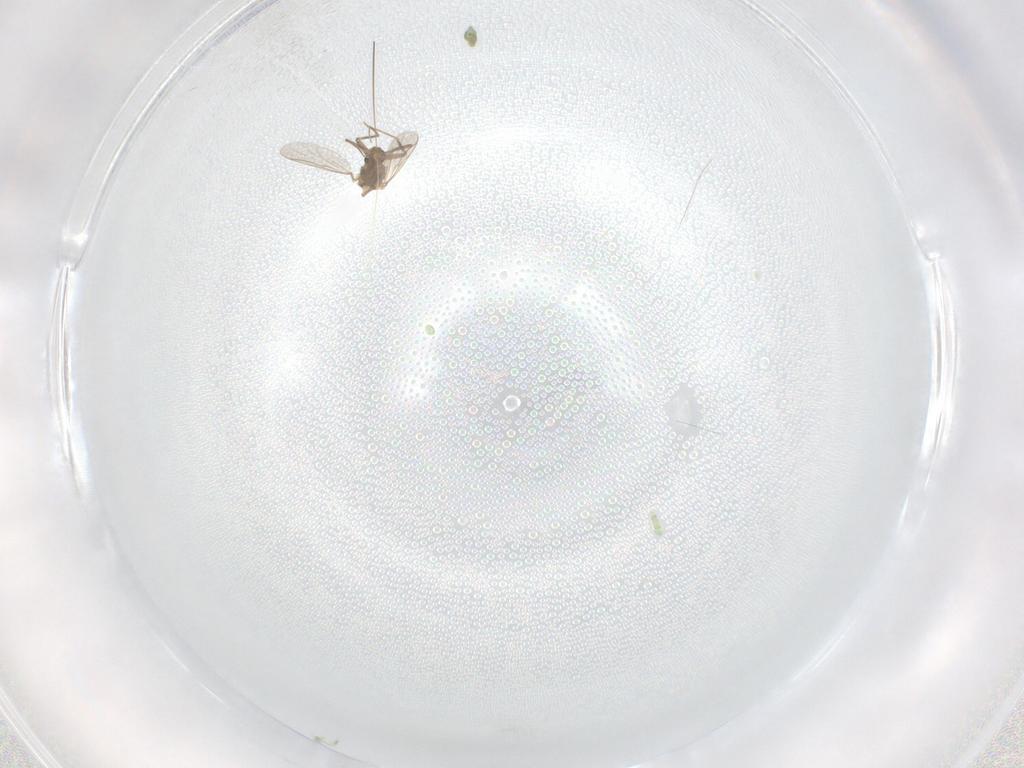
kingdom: Animalia
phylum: Arthropoda
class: Insecta
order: Diptera
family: Chironomidae
